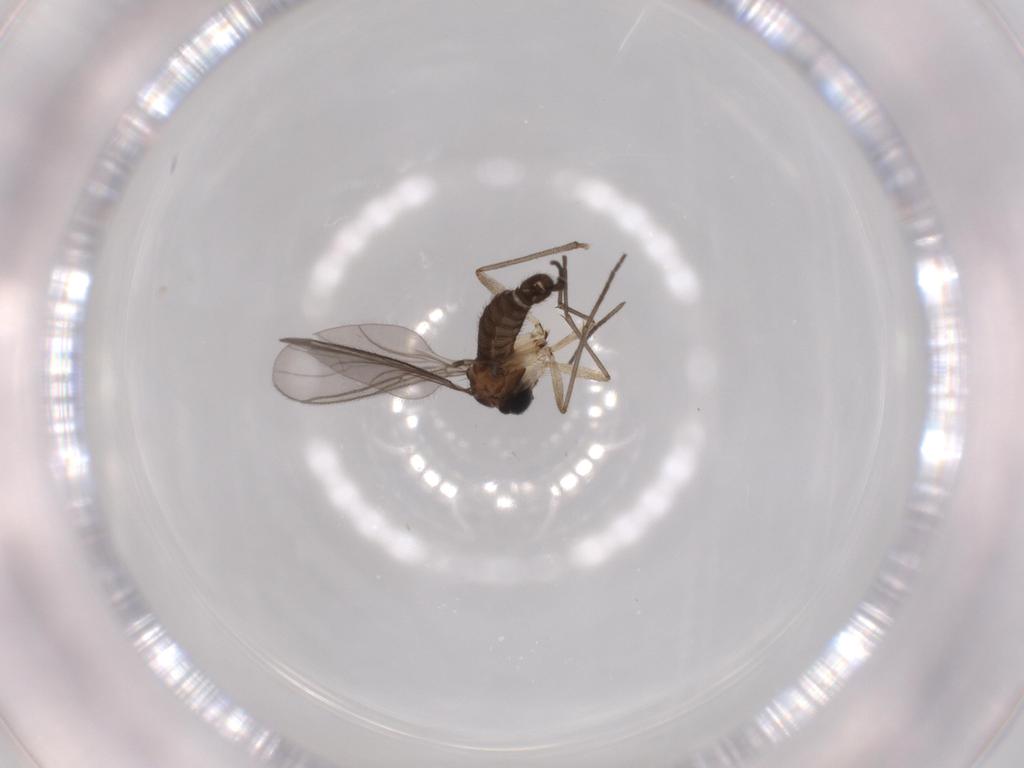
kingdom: Animalia
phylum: Arthropoda
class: Insecta
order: Diptera
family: Sciaridae
